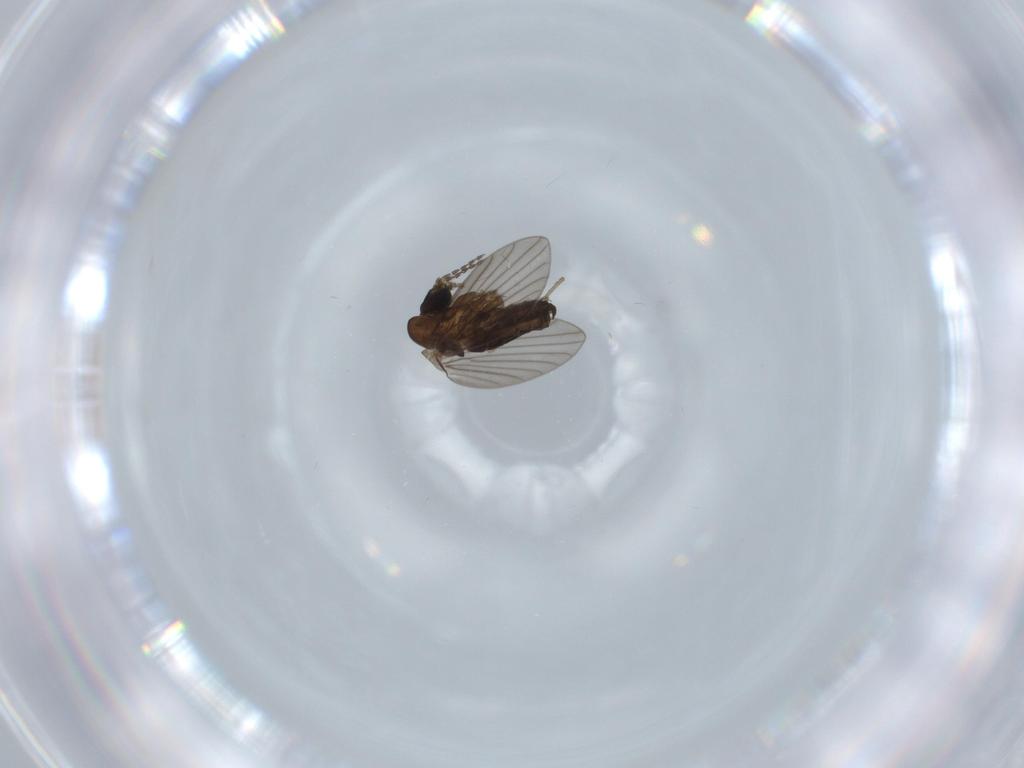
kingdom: Animalia
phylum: Arthropoda
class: Insecta
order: Diptera
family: Psychodidae
